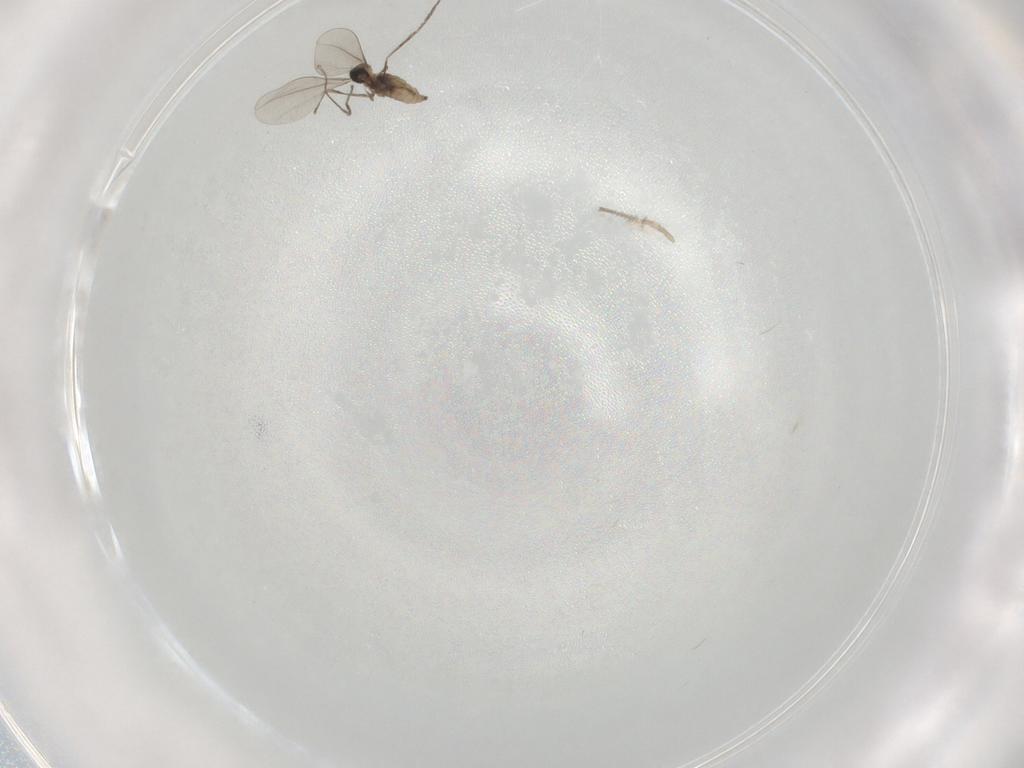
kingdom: Animalia
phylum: Arthropoda
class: Insecta
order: Diptera
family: Cecidomyiidae
